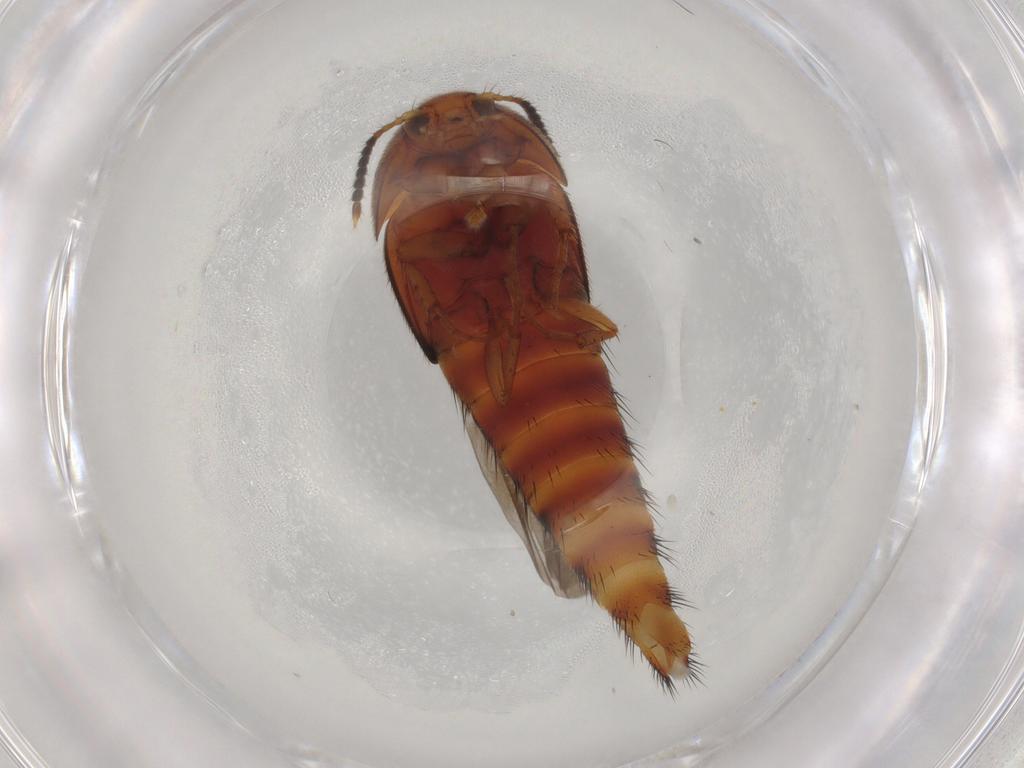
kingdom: Animalia
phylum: Arthropoda
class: Insecta
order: Coleoptera
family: Staphylinidae
